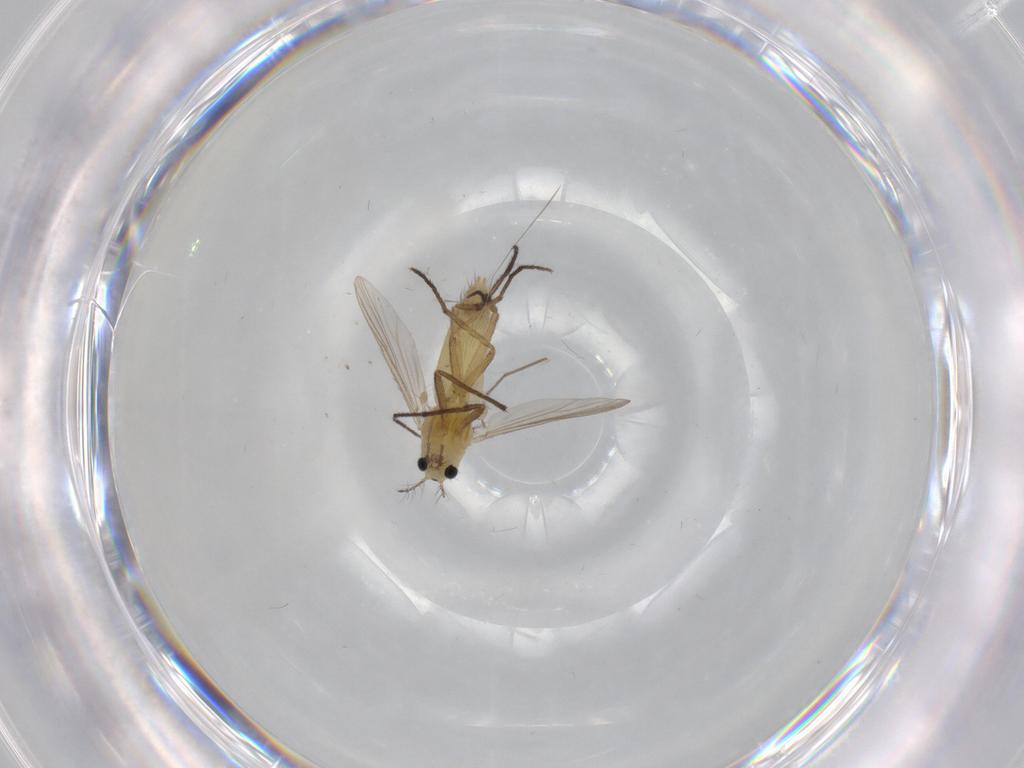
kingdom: Animalia
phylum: Arthropoda
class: Insecta
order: Diptera
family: Chironomidae
